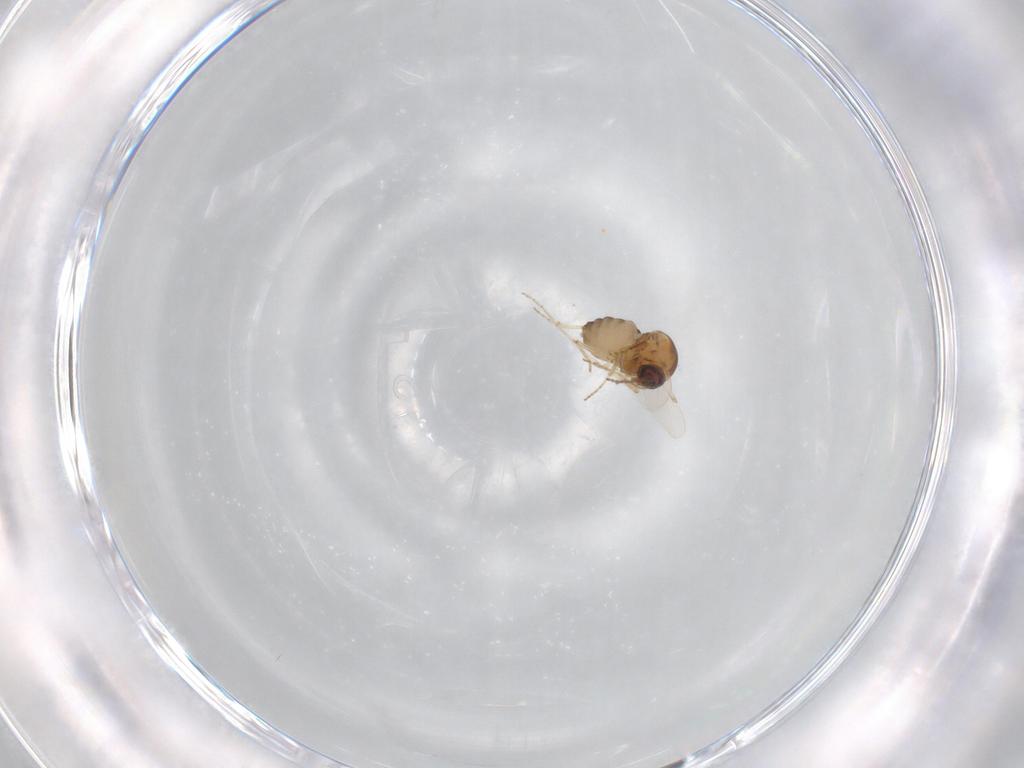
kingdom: Animalia
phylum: Arthropoda
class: Insecta
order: Diptera
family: Ceratopogonidae
